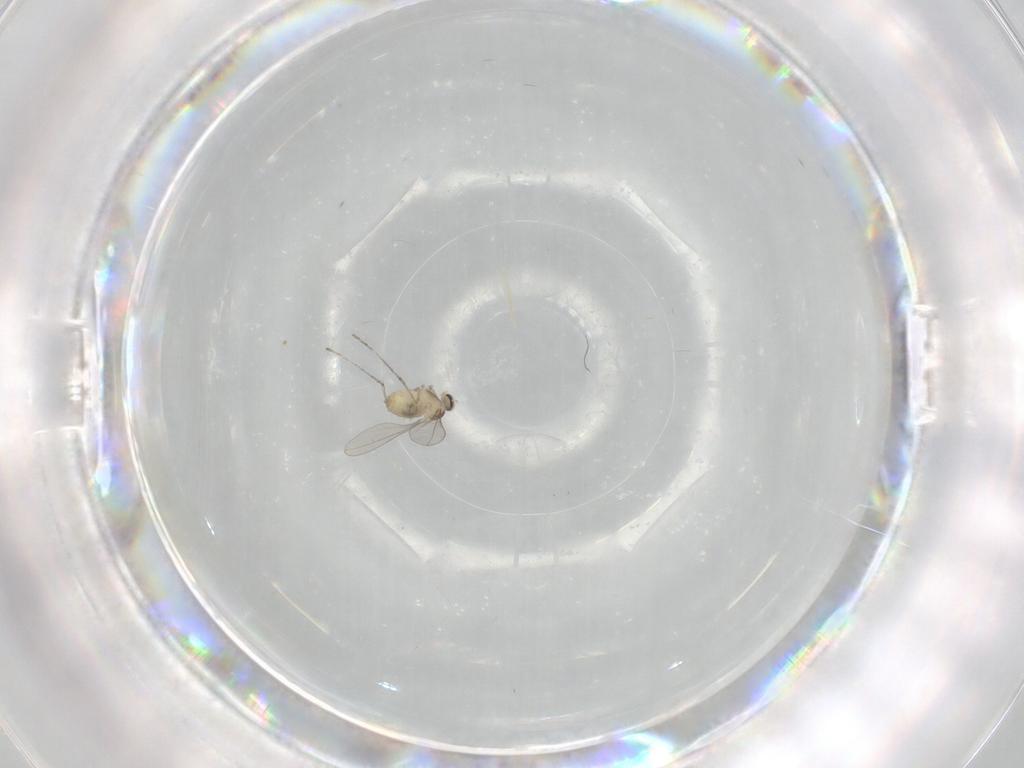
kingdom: Animalia
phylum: Arthropoda
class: Insecta
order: Diptera
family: Cecidomyiidae
